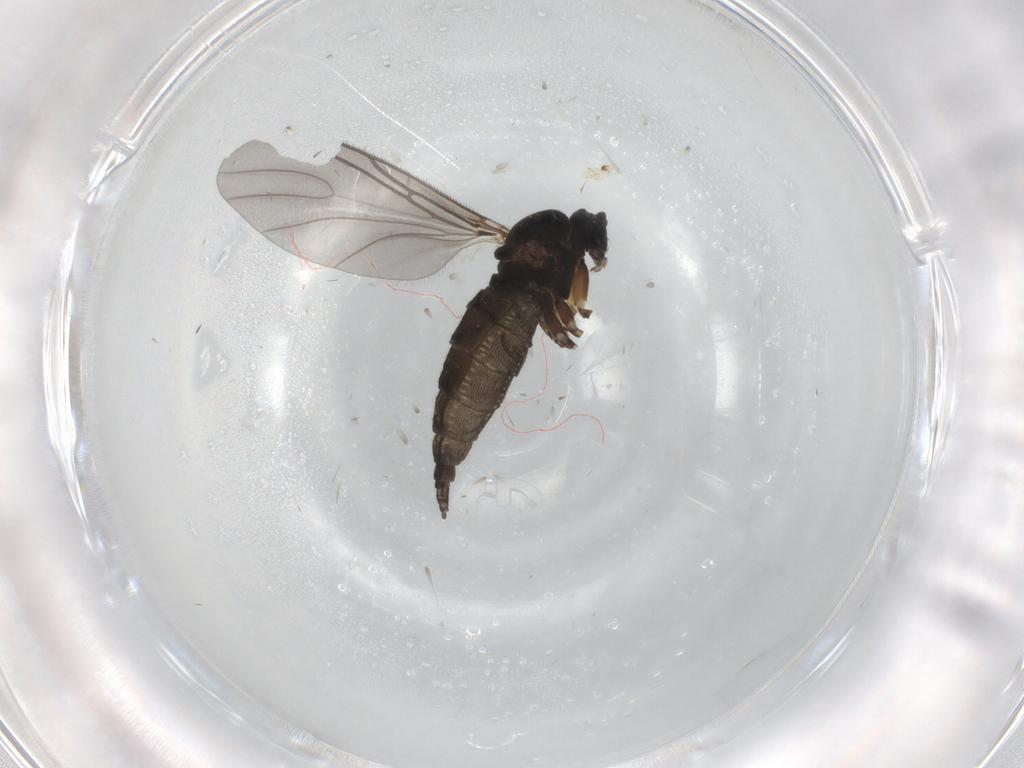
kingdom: Animalia
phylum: Arthropoda
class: Insecta
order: Diptera
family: Sciaridae
